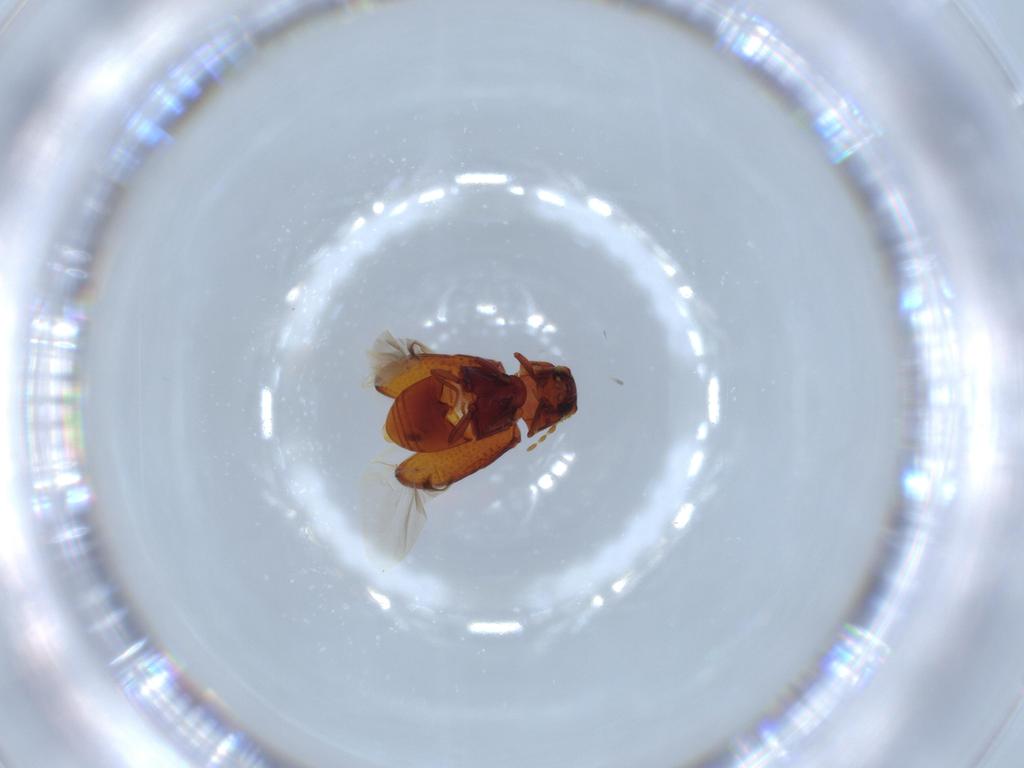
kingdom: Animalia
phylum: Arthropoda
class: Insecta
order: Coleoptera
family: Ptinidae
